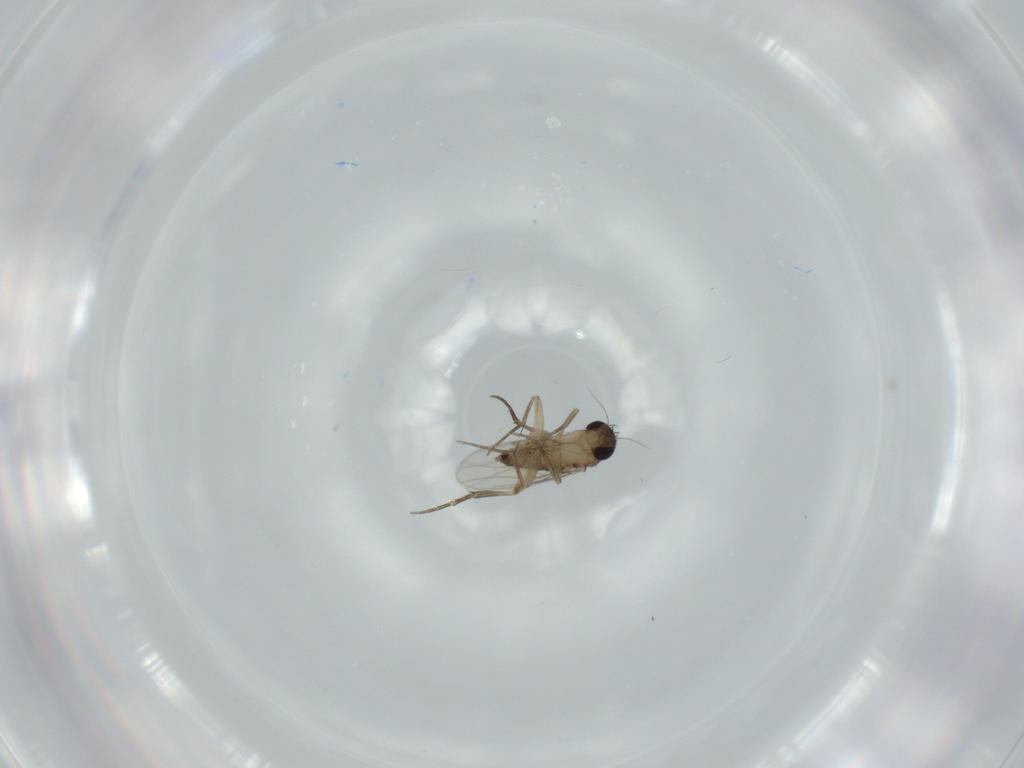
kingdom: Animalia
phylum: Arthropoda
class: Insecta
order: Diptera
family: Phoridae
